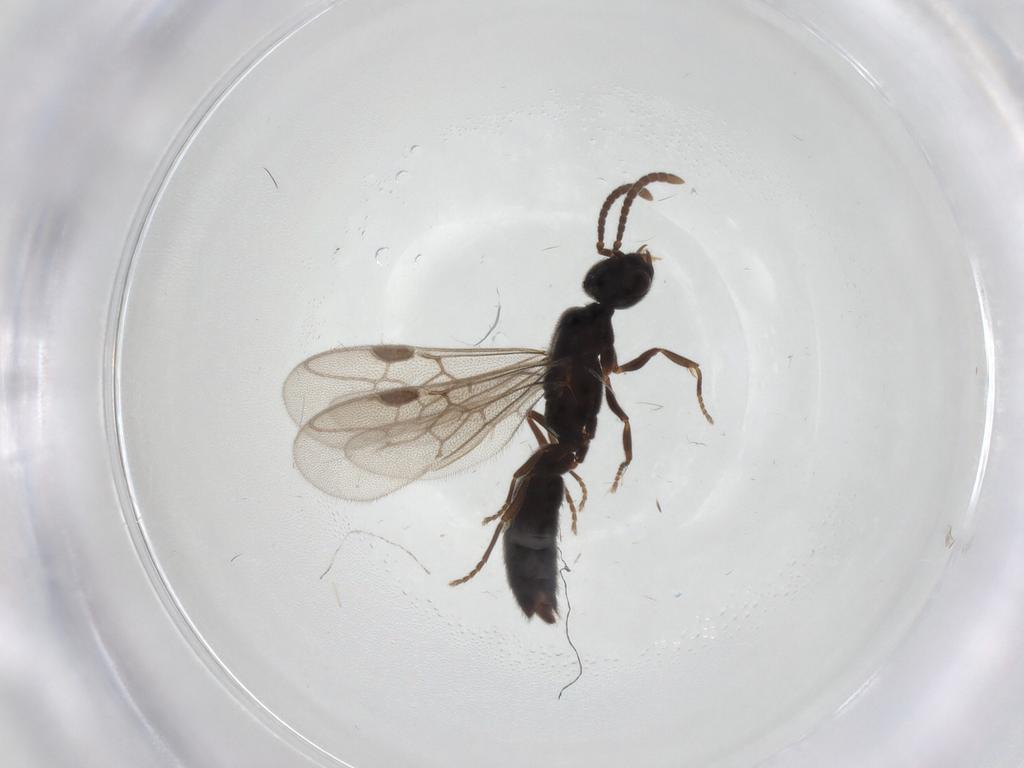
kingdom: Animalia
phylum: Arthropoda
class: Insecta
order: Hymenoptera
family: Formicidae
